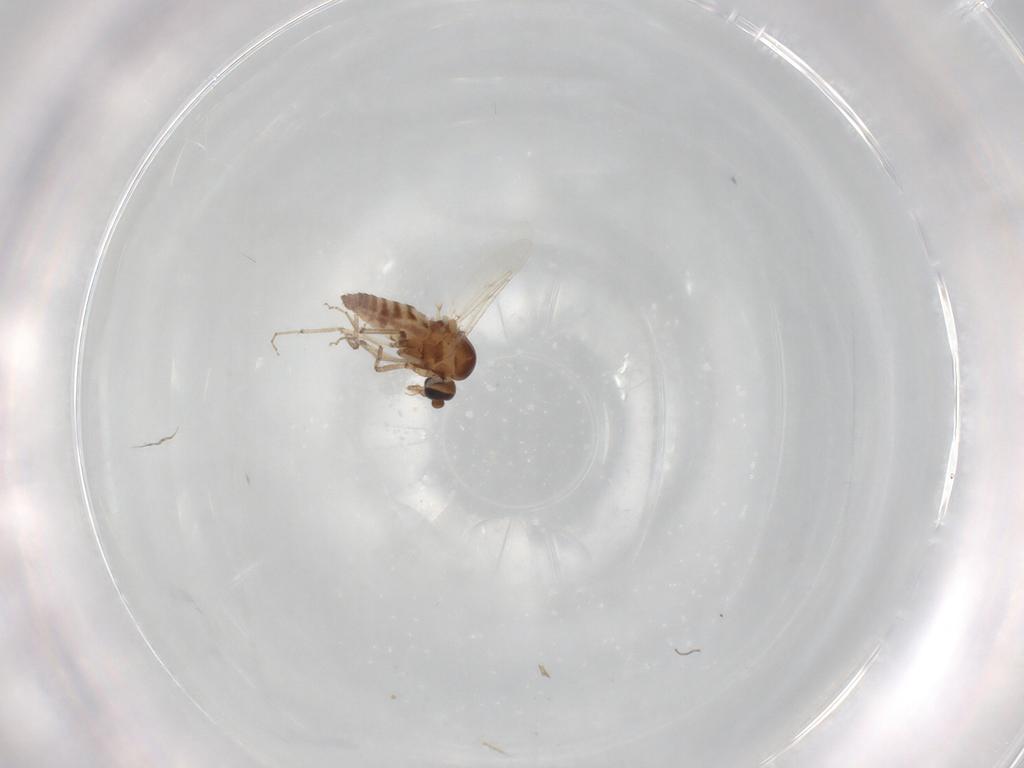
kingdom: Animalia
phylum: Arthropoda
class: Insecta
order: Diptera
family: Ceratopogonidae
